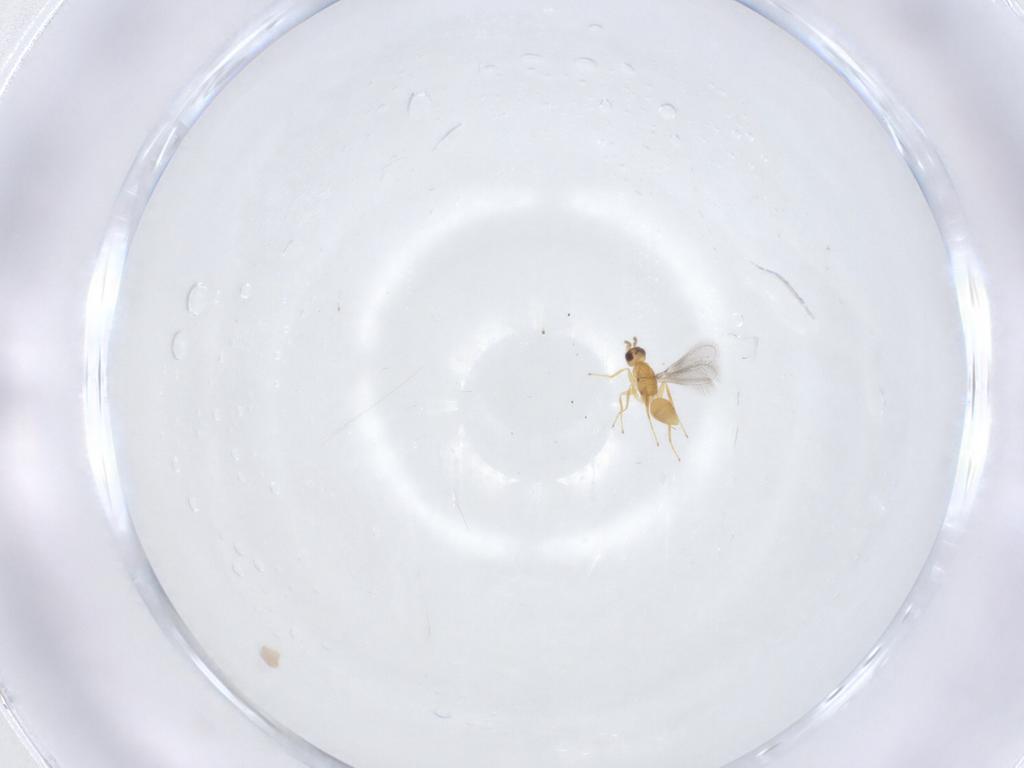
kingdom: Animalia
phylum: Arthropoda
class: Insecta
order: Hymenoptera
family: Mymaridae
